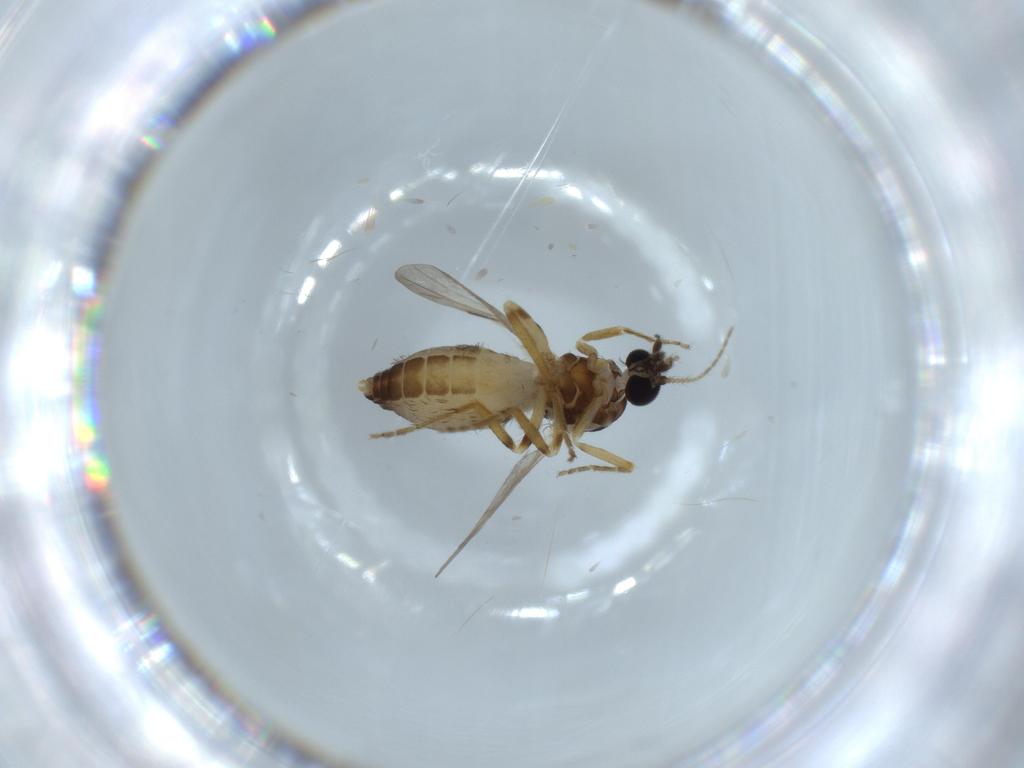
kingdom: Animalia
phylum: Arthropoda
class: Insecta
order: Diptera
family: Ceratopogonidae
